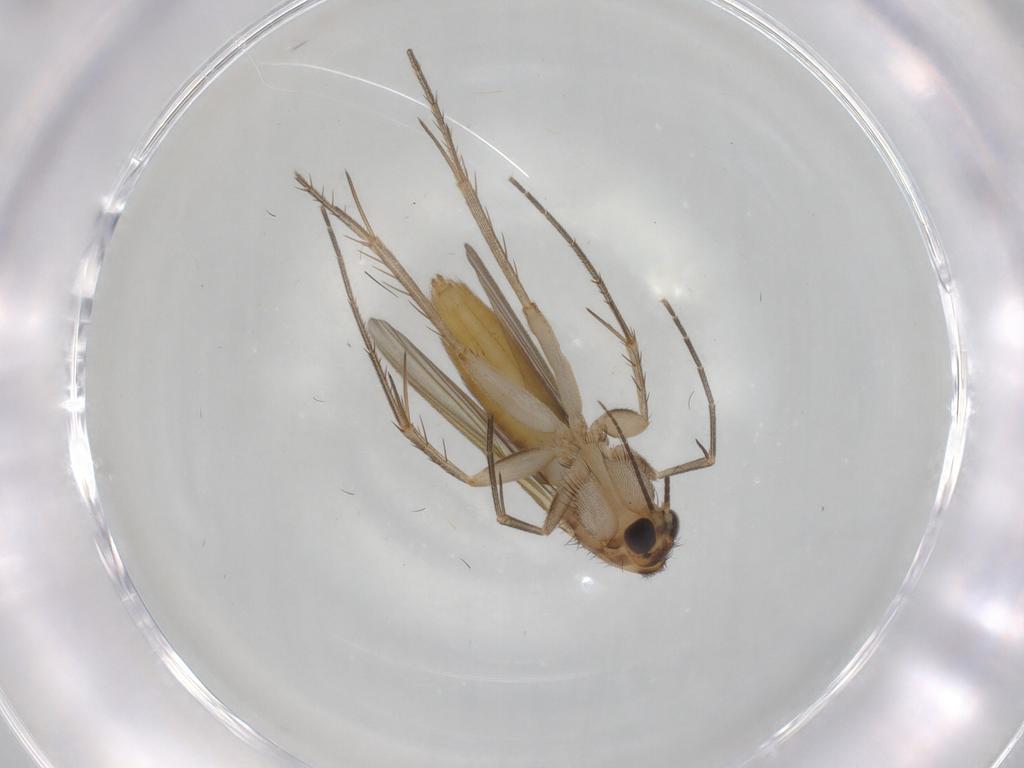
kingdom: Animalia
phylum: Arthropoda
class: Insecta
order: Diptera
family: Mycetophilidae
